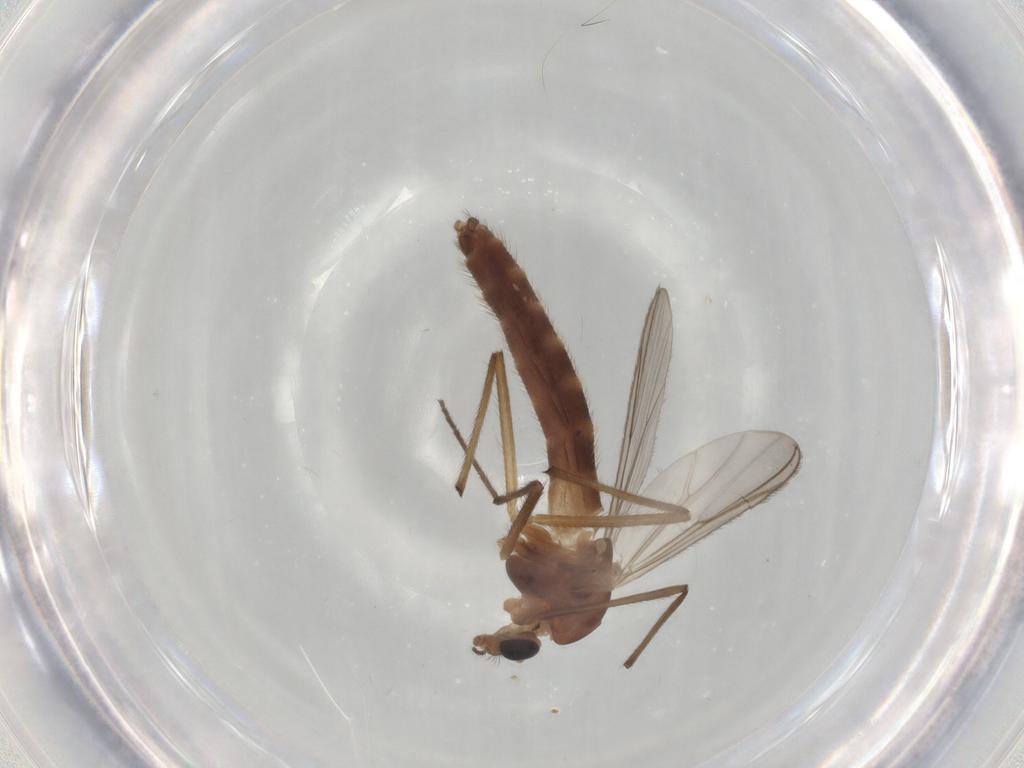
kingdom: Animalia
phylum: Arthropoda
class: Insecta
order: Diptera
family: Chironomidae
